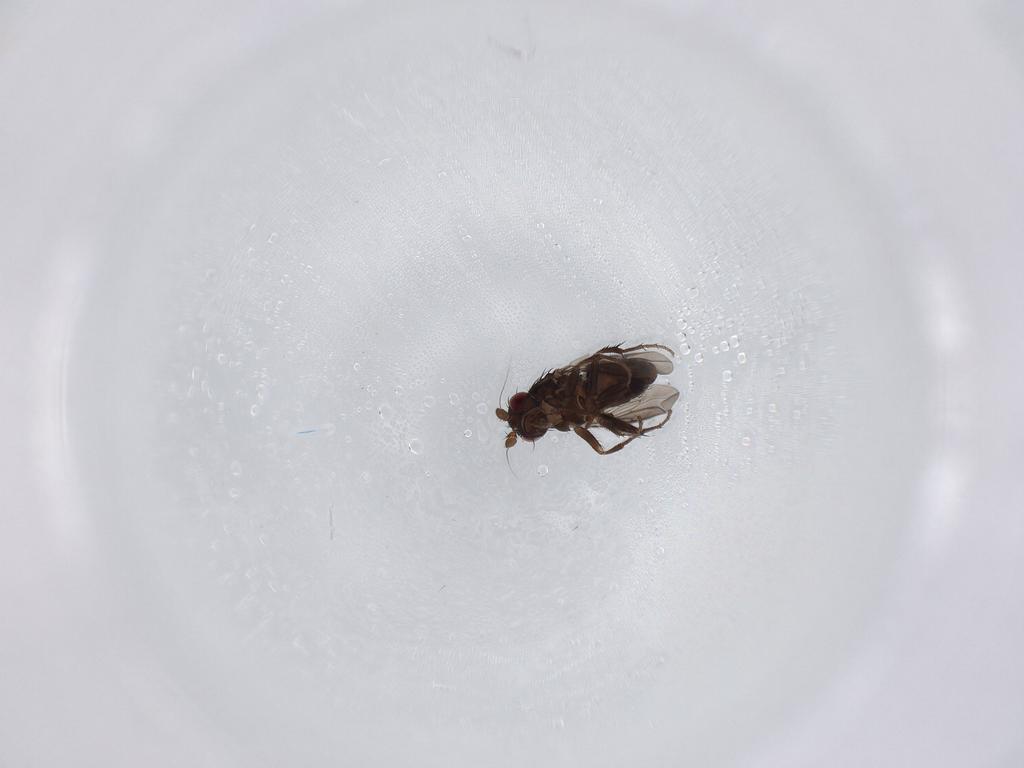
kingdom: Animalia
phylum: Arthropoda
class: Insecta
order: Diptera
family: Sphaeroceridae
